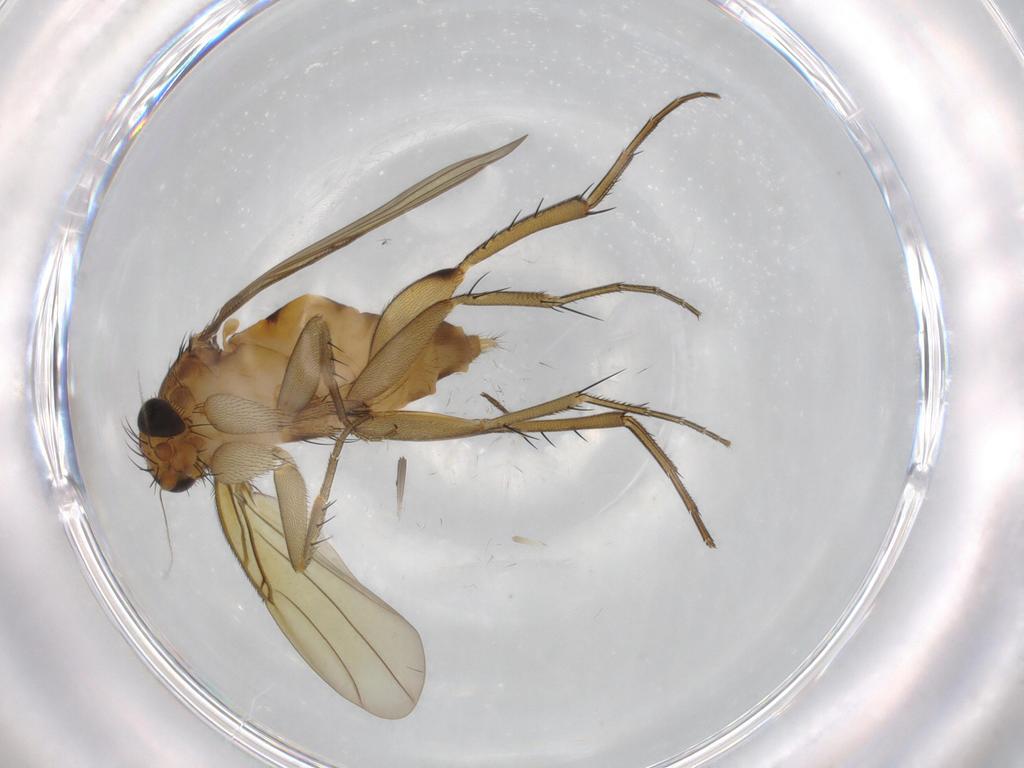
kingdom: Animalia
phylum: Arthropoda
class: Insecta
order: Diptera
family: Phoridae
